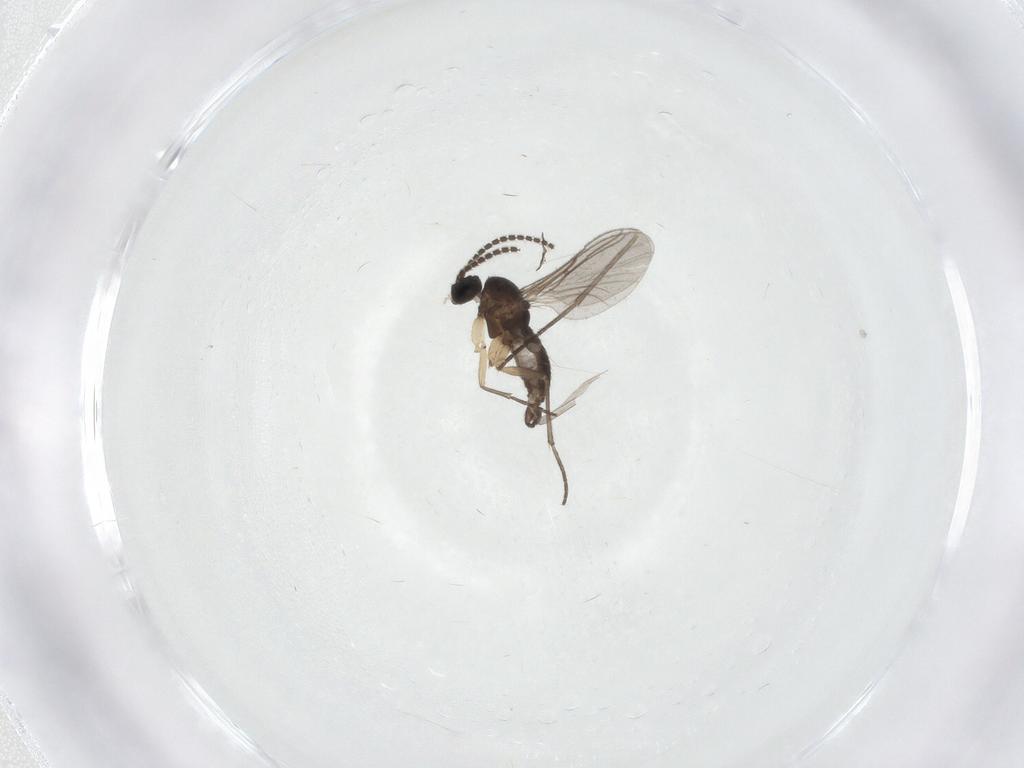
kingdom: Animalia
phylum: Arthropoda
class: Insecta
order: Diptera
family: Sciaridae
